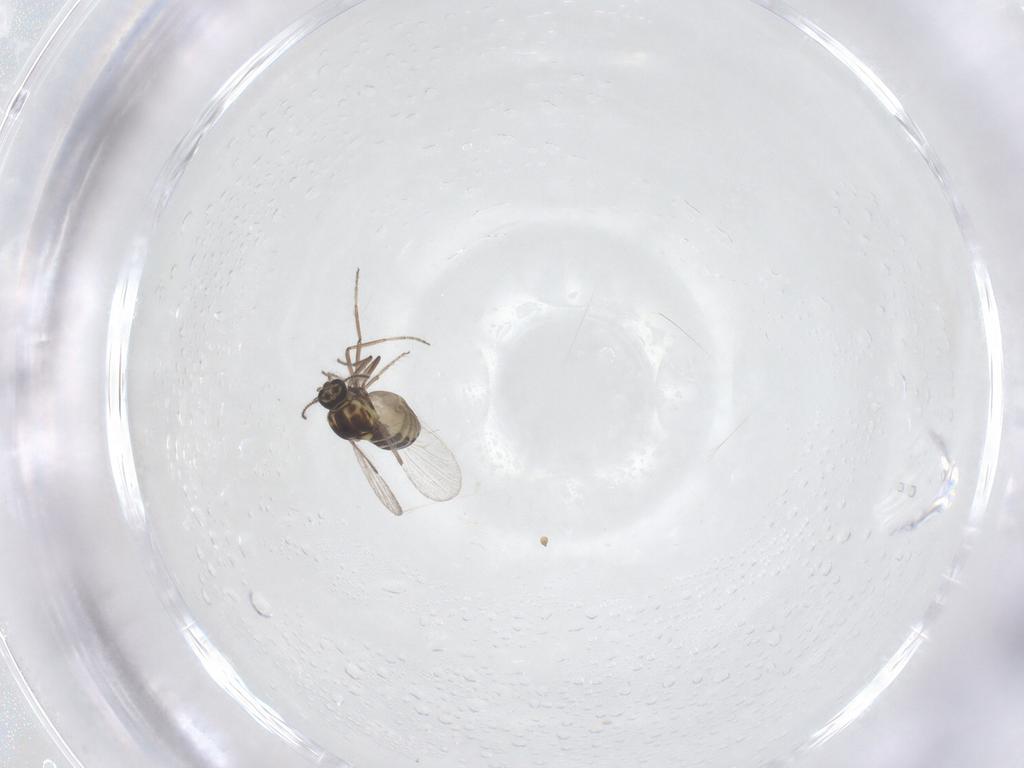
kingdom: Animalia
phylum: Arthropoda
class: Insecta
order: Diptera
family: Ceratopogonidae
